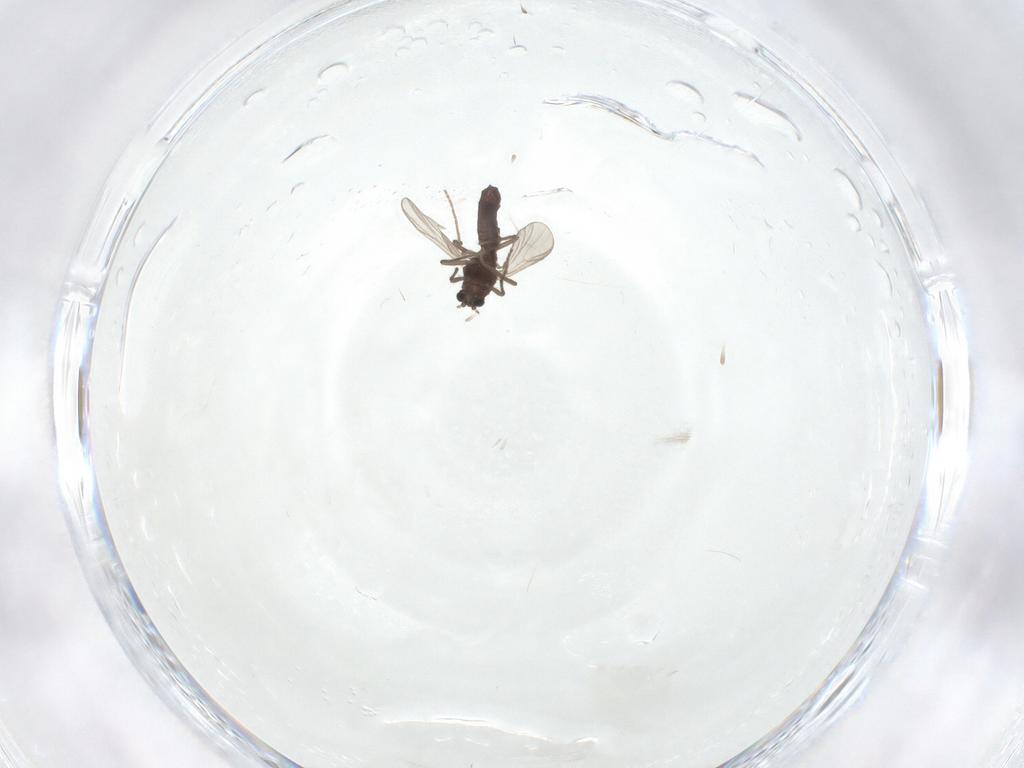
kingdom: Animalia
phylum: Arthropoda
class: Insecta
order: Diptera
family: Chironomidae
